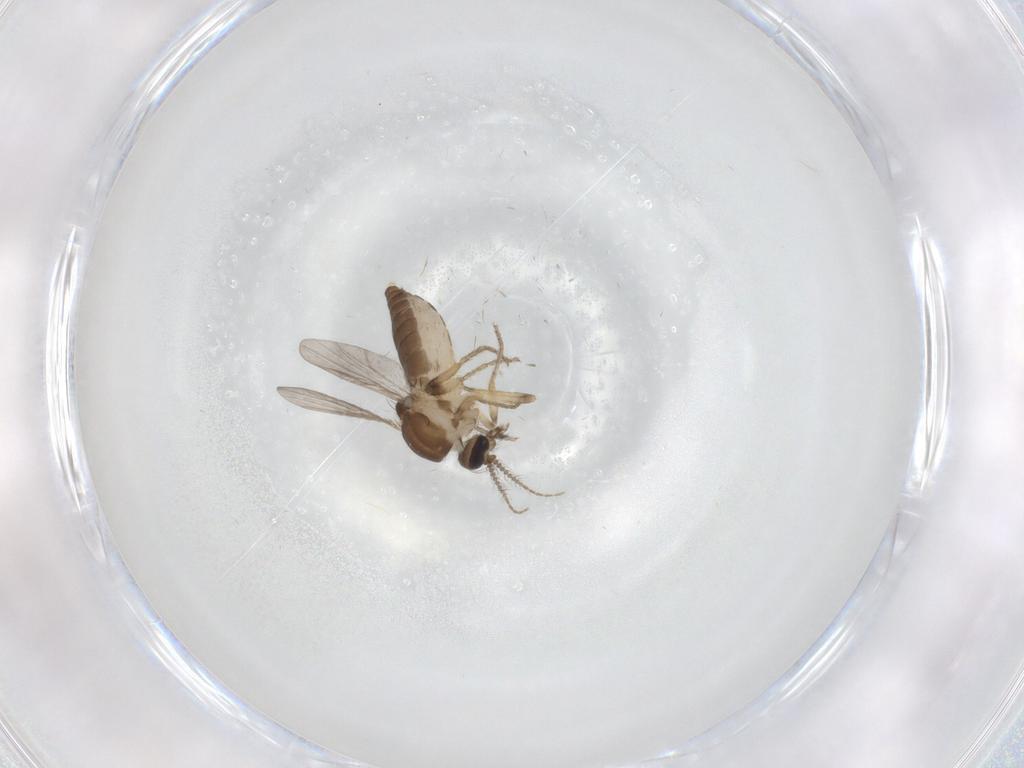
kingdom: Animalia
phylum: Arthropoda
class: Insecta
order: Diptera
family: Ceratopogonidae
